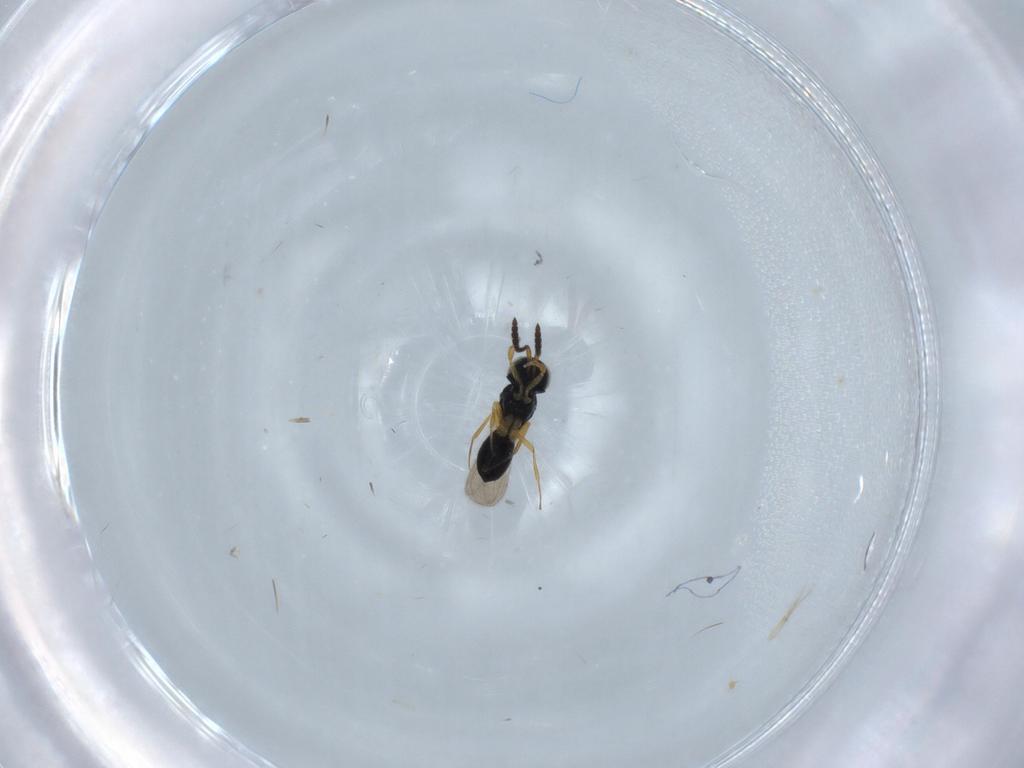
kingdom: Animalia
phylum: Arthropoda
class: Insecta
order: Hymenoptera
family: Scelionidae
